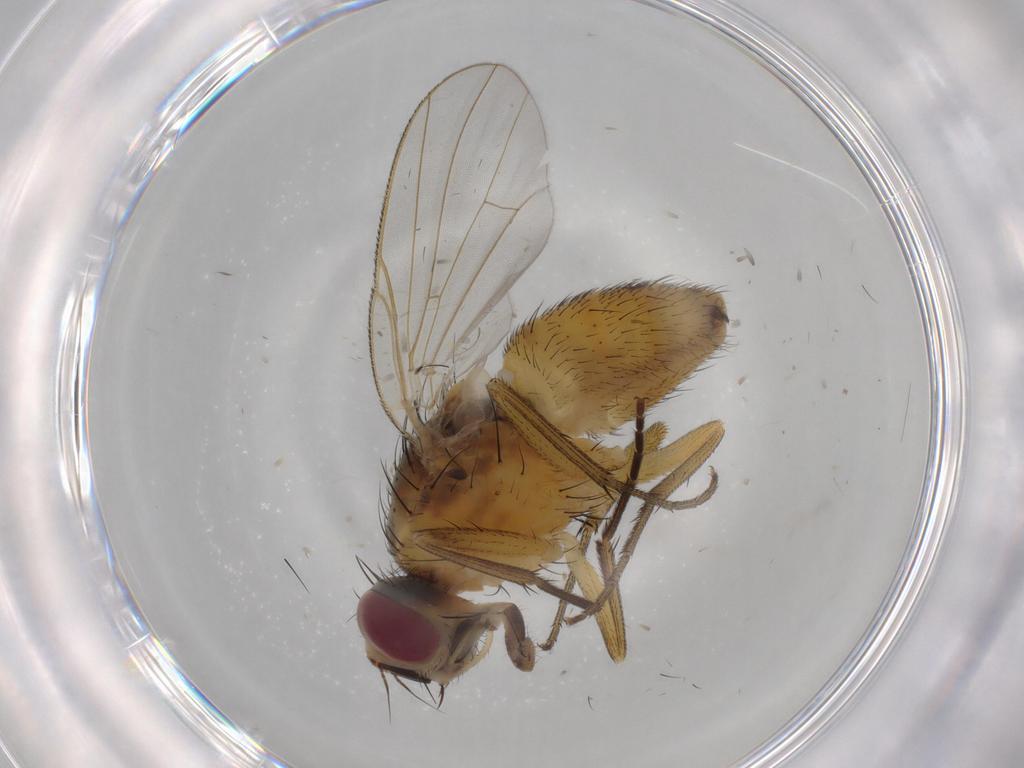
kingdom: Animalia
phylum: Arthropoda
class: Insecta
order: Diptera
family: Muscidae
